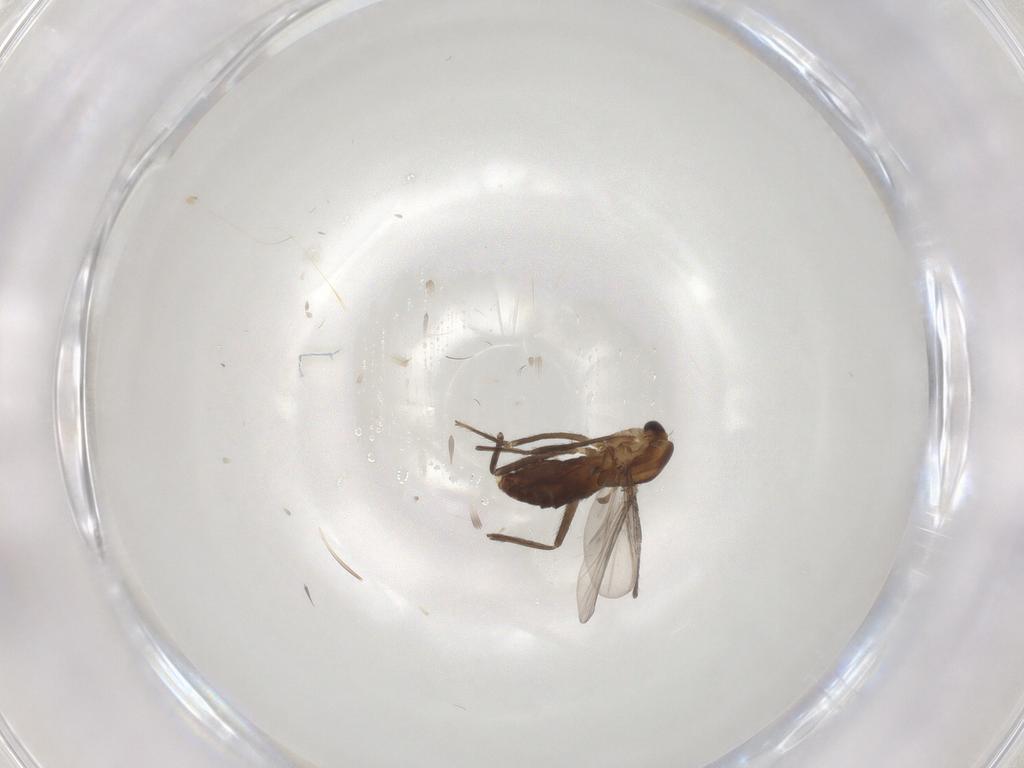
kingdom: Animalia
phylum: Arthropoda
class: Insecta
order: Diptera
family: Chironomidae
